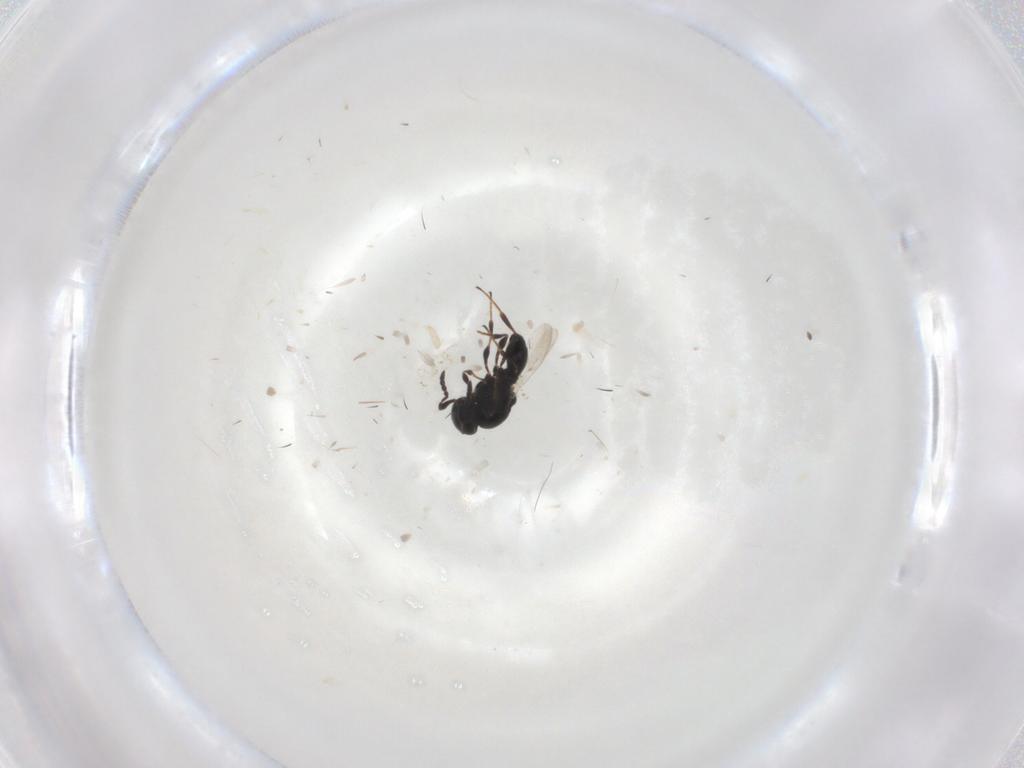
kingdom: Animalia
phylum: Arthropoda
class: Insecta
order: Hymenoptera
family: Platygastridae
